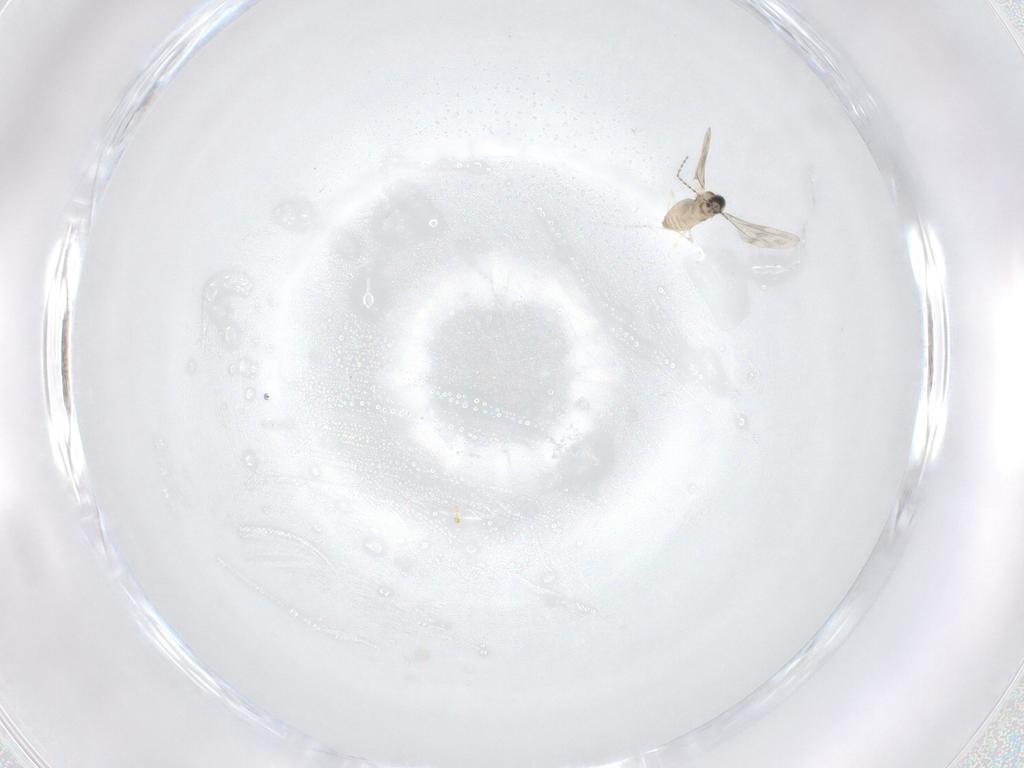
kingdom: Animalia
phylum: Arthropoda
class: Insecta
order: Diptera
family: Cecidomyiidae
